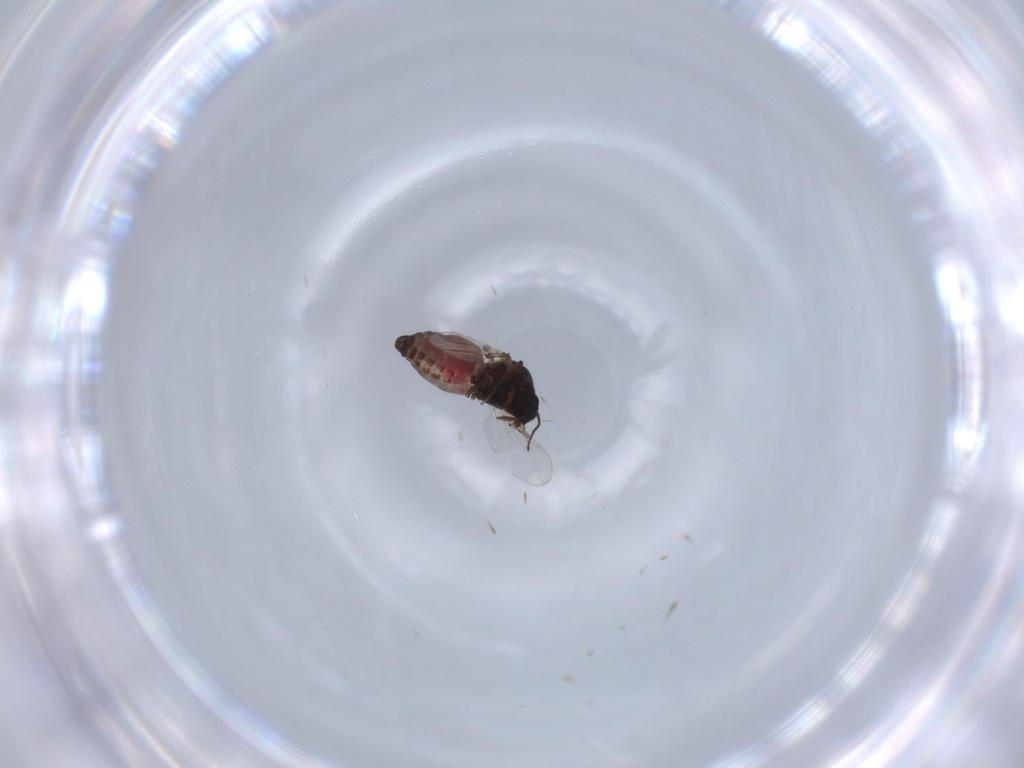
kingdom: Animalia
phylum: Arthropoda
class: Insecta
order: Diptera
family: Ceratopogonidae
